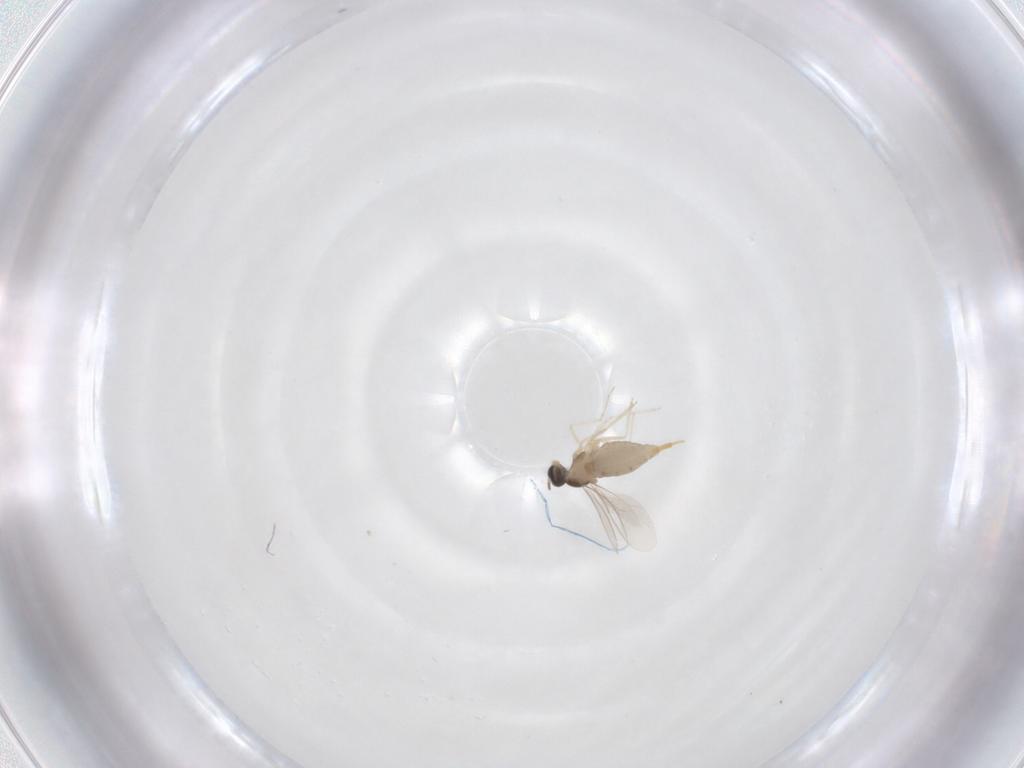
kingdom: Animalia
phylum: Arthropoda
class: Insecta
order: Diptera
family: Cecidomyiidae
